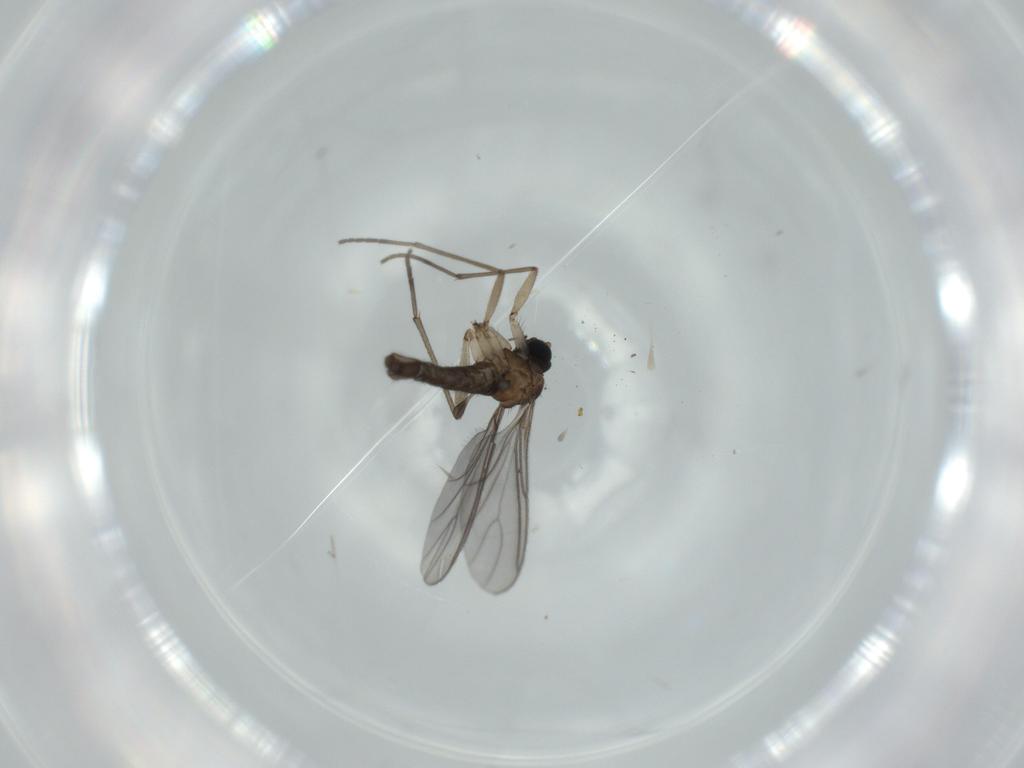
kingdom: Animalia
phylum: Arthropoda
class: Insecta
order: Diptera
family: Sciaridae
